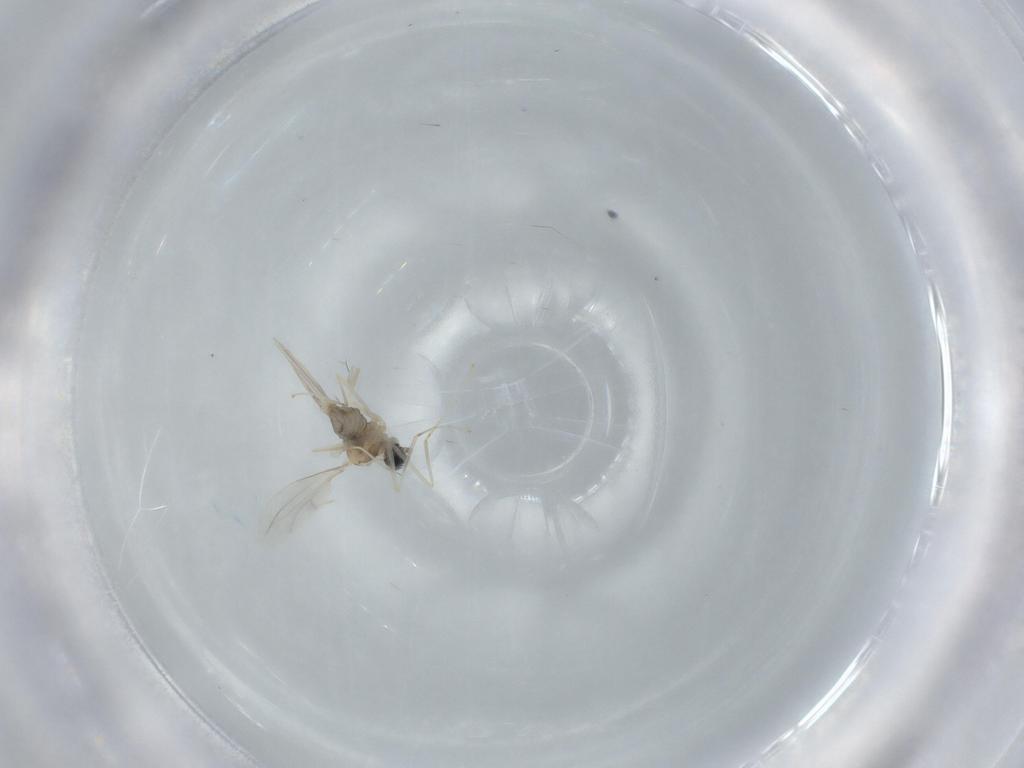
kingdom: Animalia
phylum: Arthropoda
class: Insecta
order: Diptera
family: Cecidomyiidae
